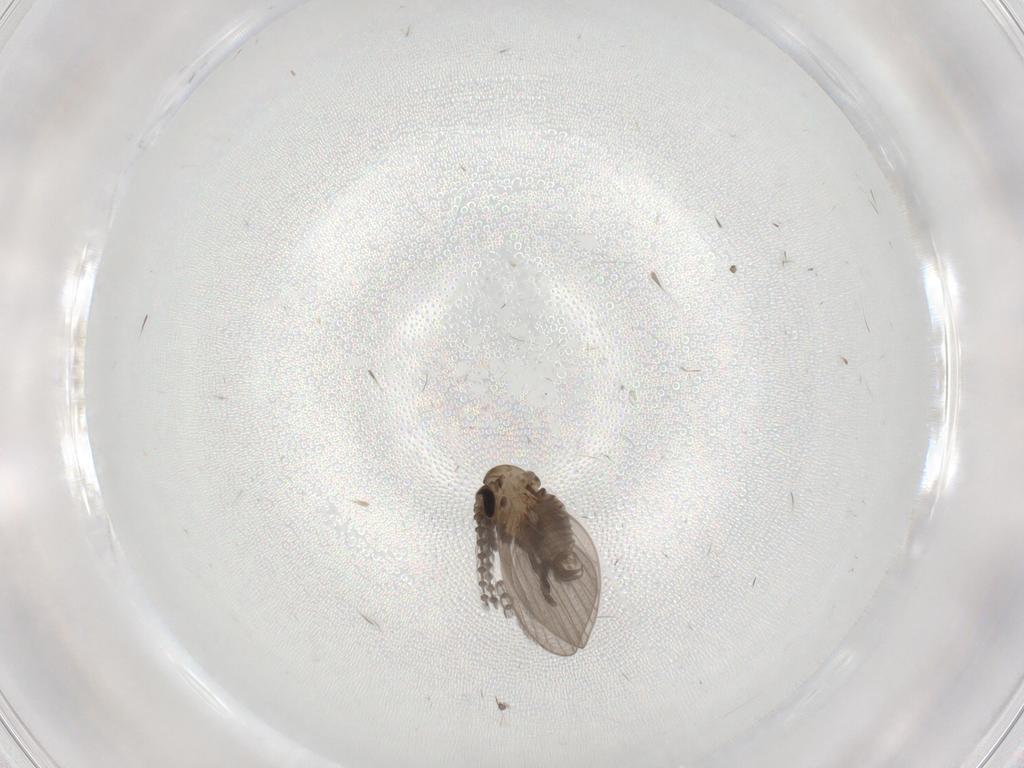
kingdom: Animalia
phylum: Arthropoda
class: Insecta
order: Diptera
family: Psychodidae
